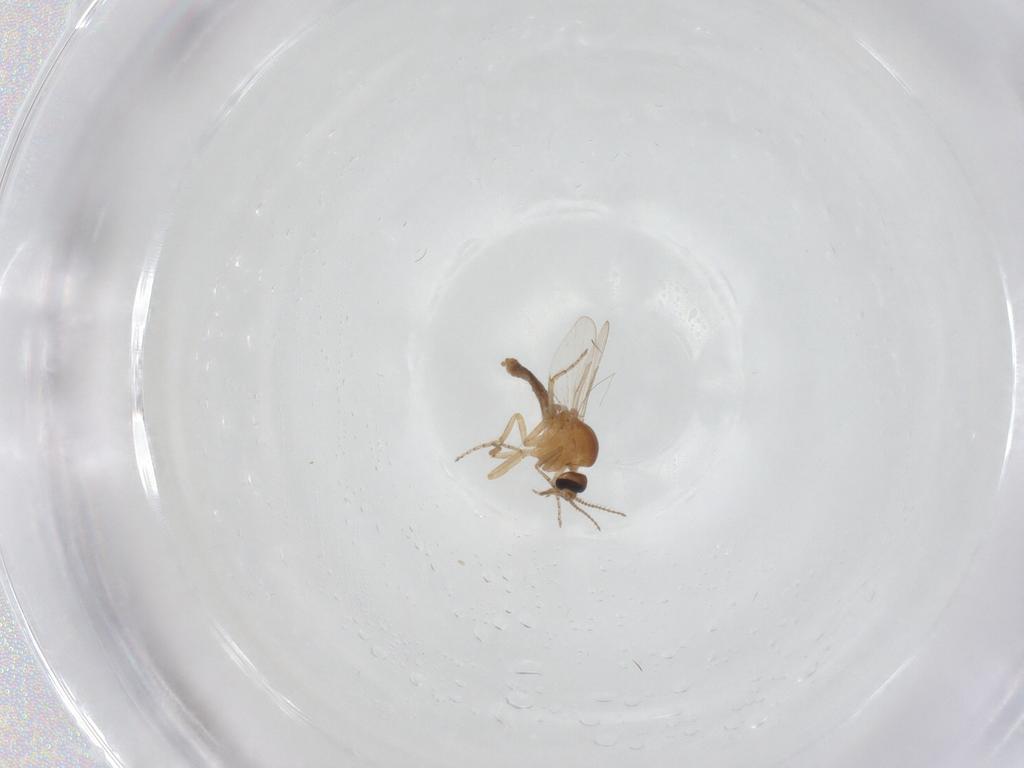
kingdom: Animalia
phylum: Arthropoda
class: Insecta
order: Diptera
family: Ceratopogonidae
